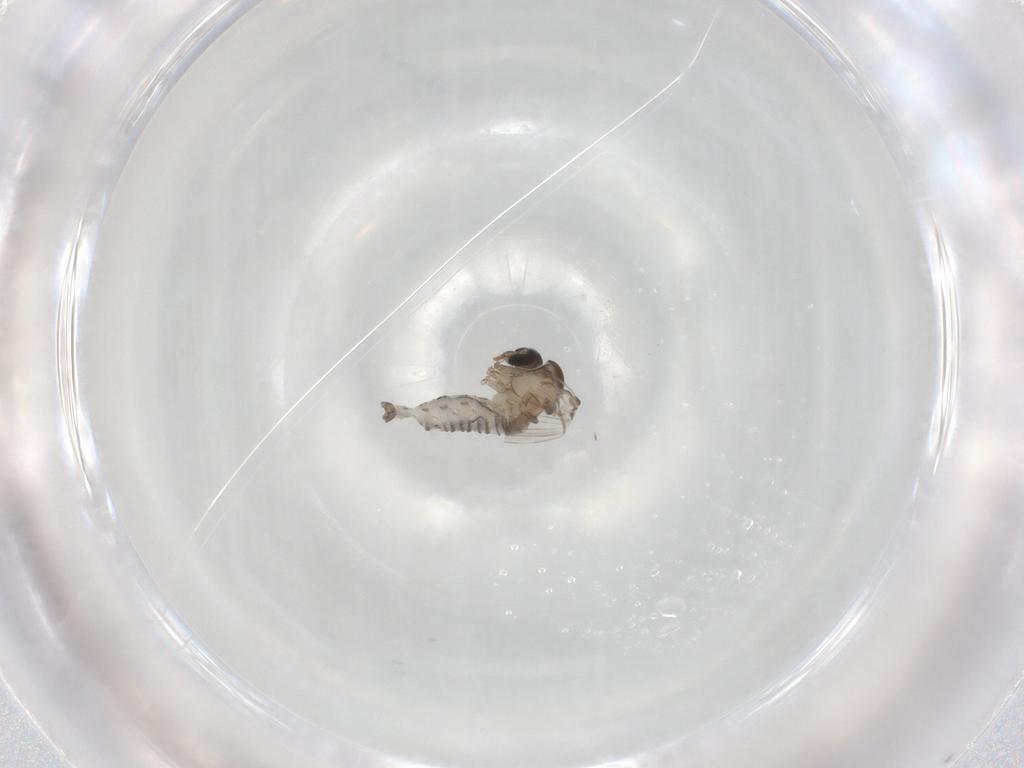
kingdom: Animalia
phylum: Arthropoda
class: Insecta
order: Diptera
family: Psychodidae
